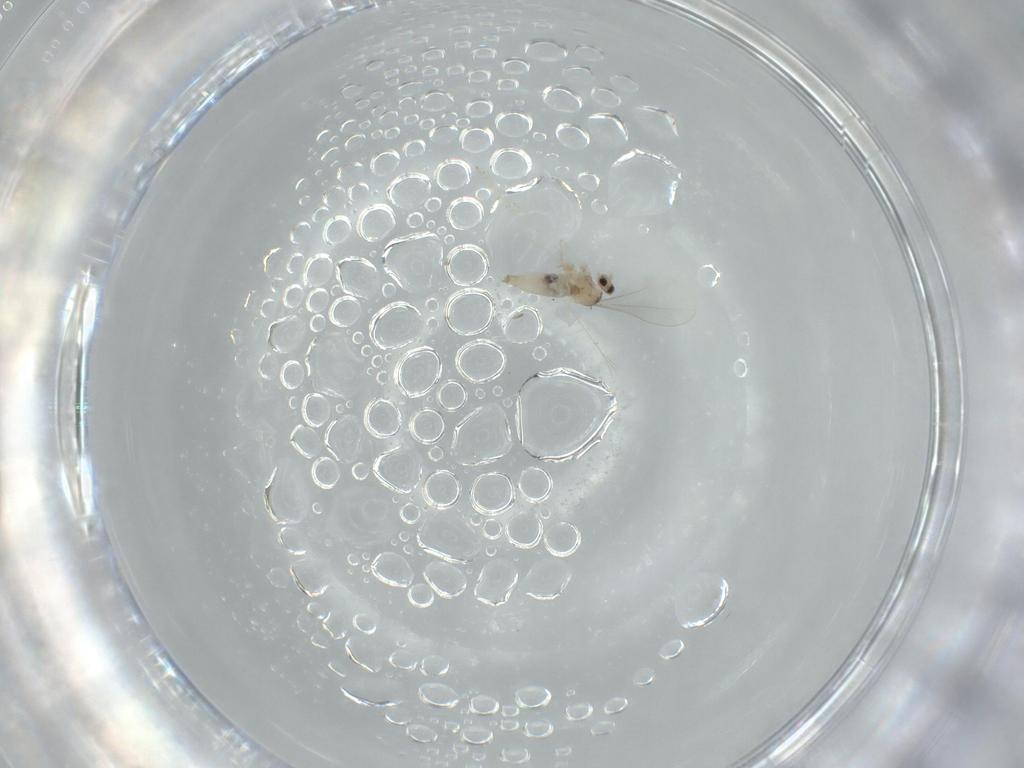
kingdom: Animalia
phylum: Arthropoda
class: Insecta
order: Diptera
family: Cecidomyiidae
